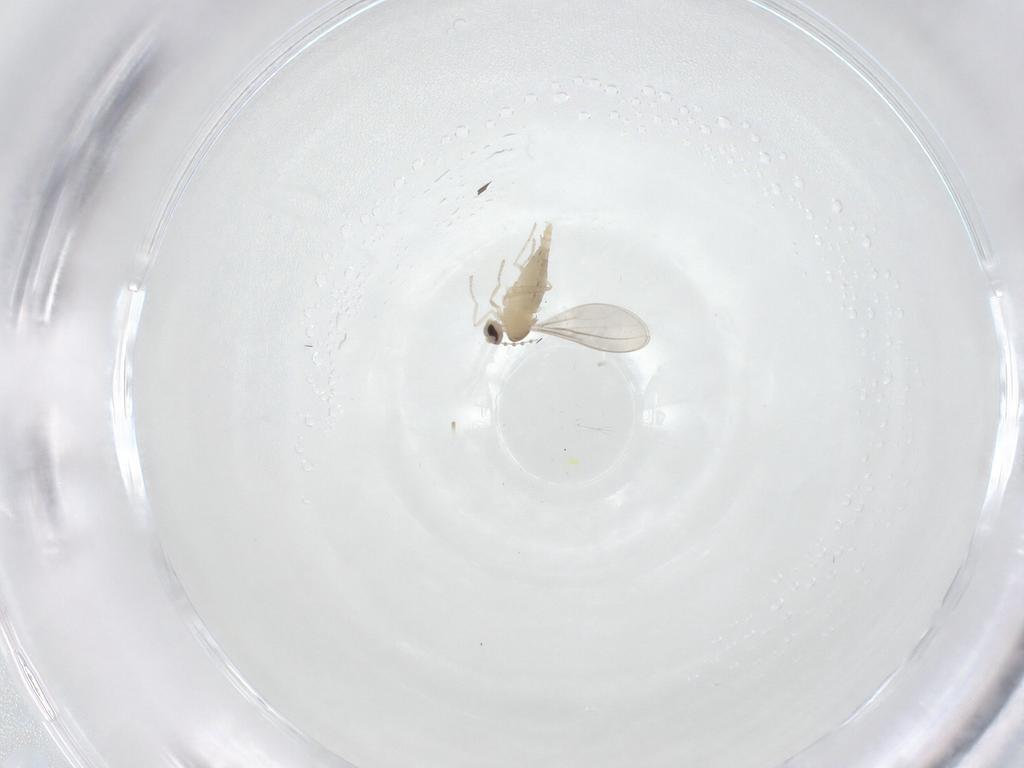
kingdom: Animalia
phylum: Arthropoda
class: Insecta
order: Diptera
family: Cecidomyiidae
